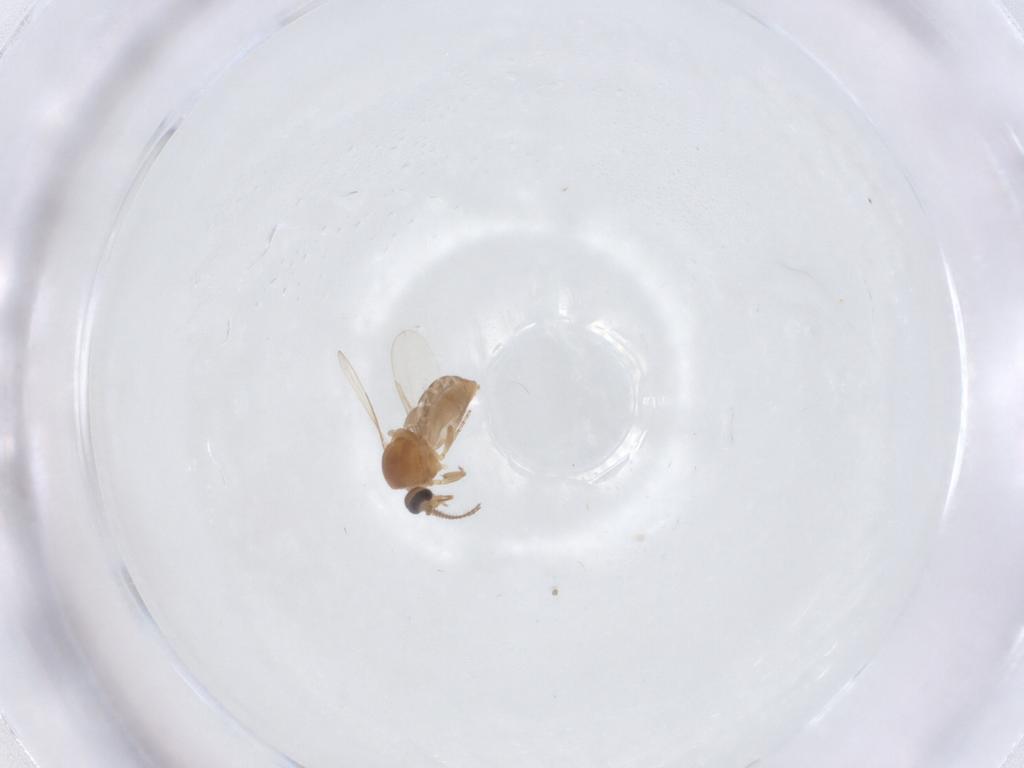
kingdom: Animalia
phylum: Arthropoda
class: Insecta
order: Diptera
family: Ceratopogonidae
